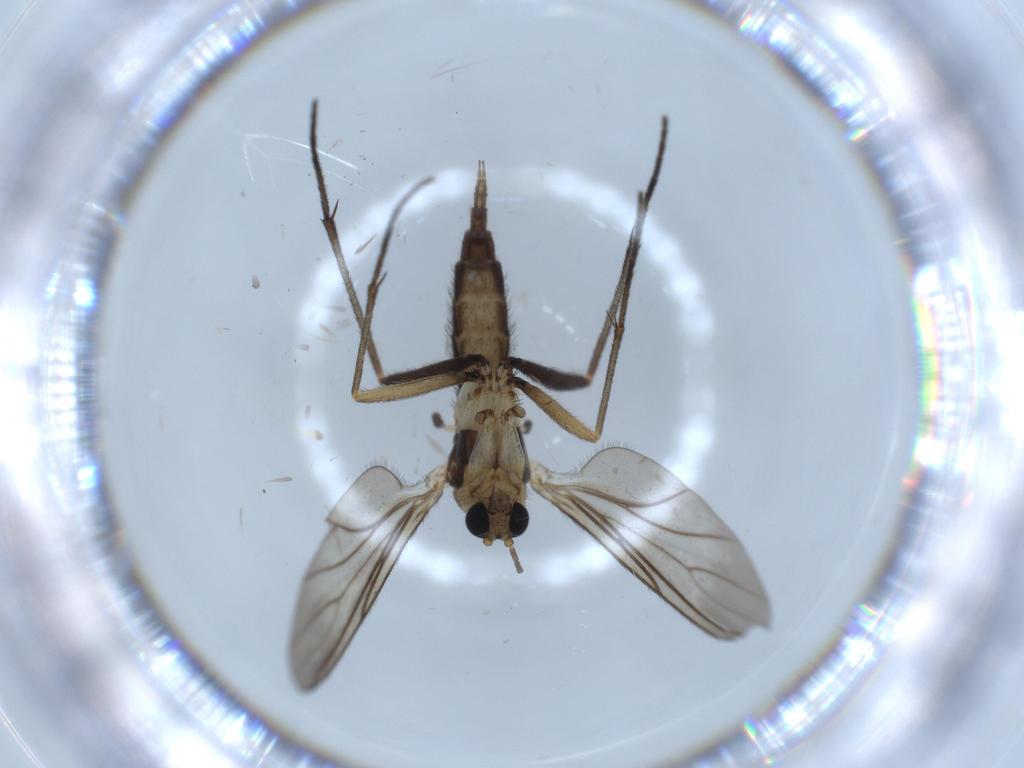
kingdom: Animalia
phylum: Arthropoda
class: Insecta
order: Diptera
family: Sciaridae
